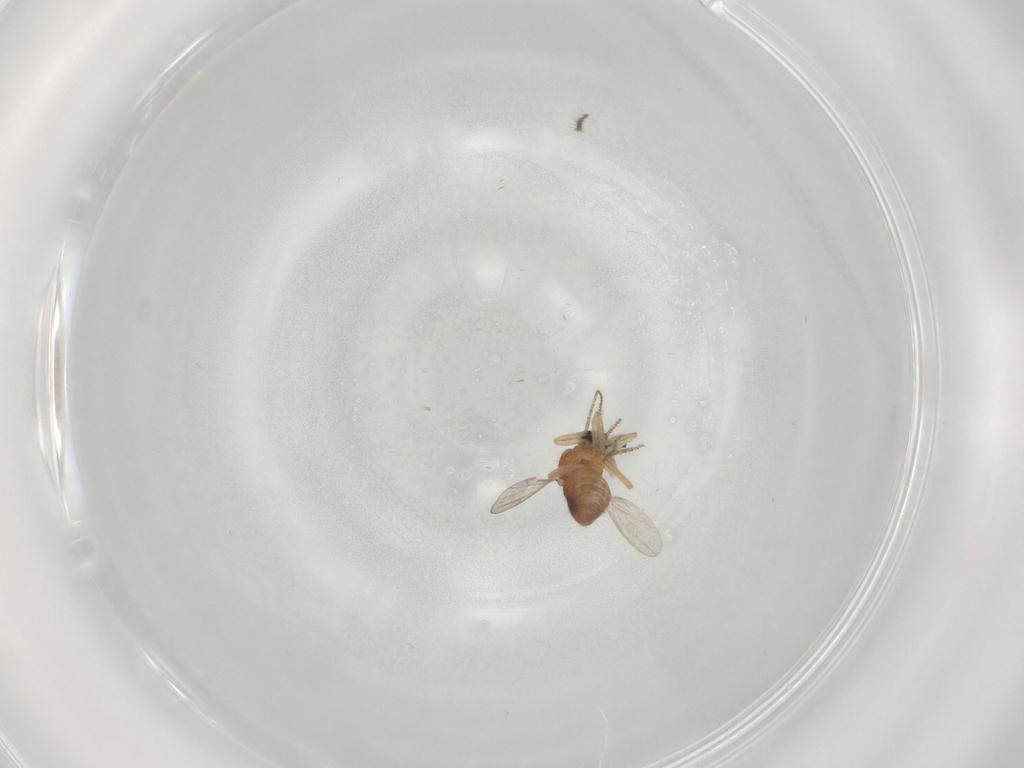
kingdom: Animalia
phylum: Arthropoda
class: Insecta
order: Diptera
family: Ceratopogonidae
